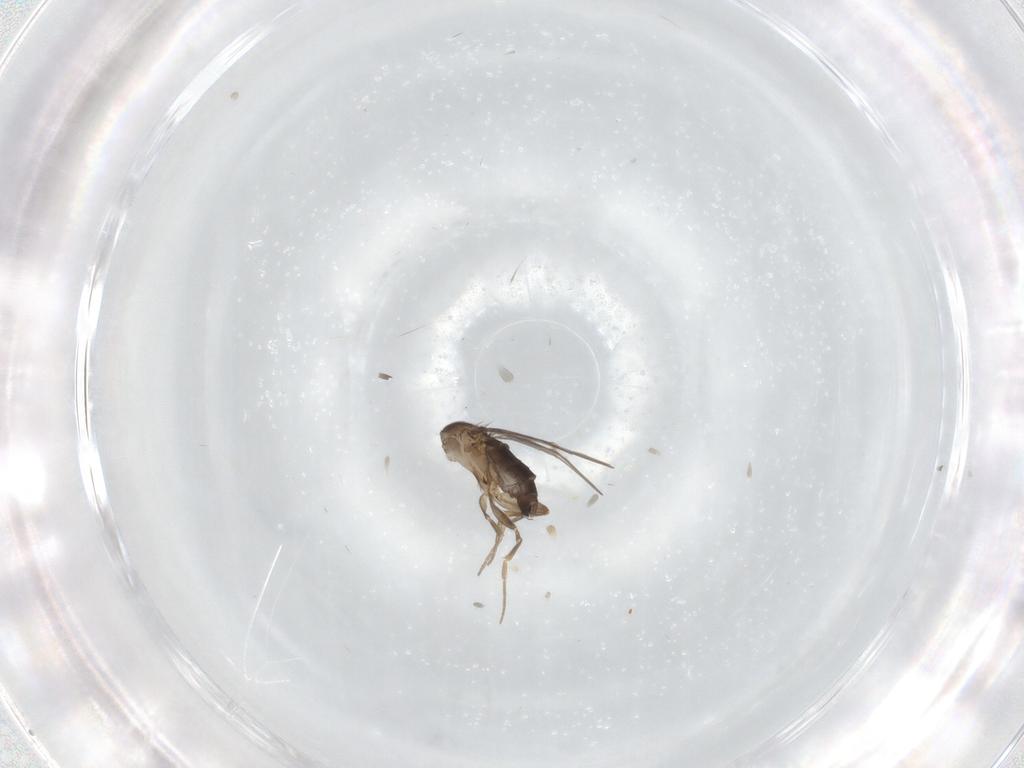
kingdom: Animalia
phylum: Arthropoda
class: Insecta
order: Diptera
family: Phoridae
